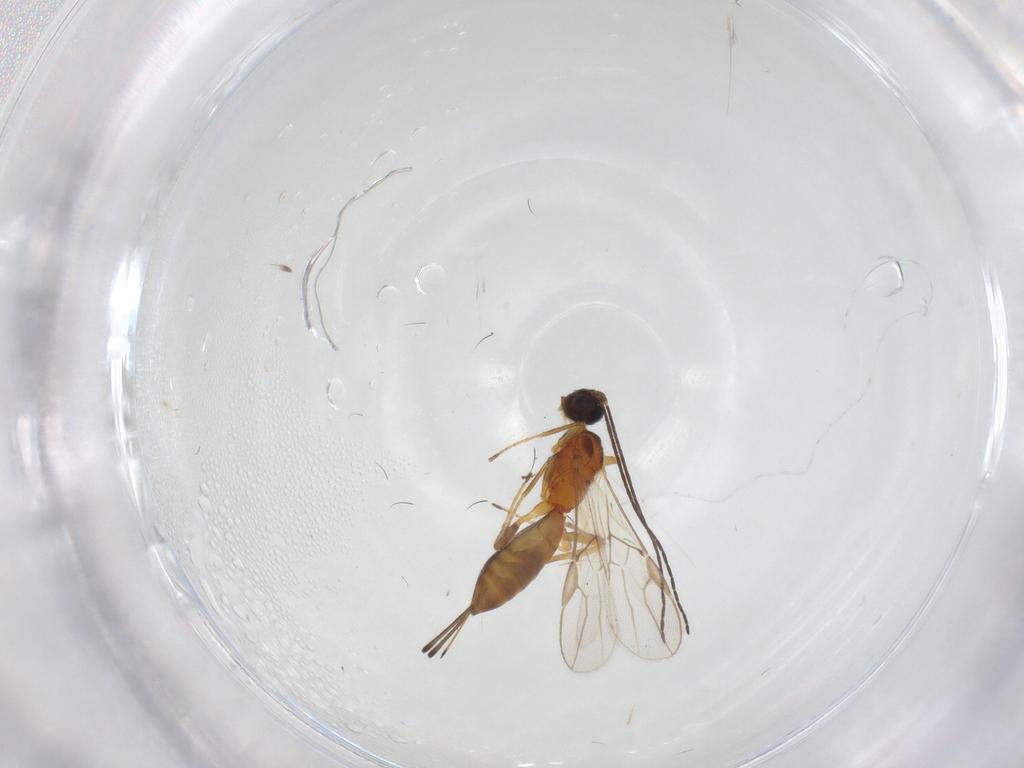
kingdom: Animalia
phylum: Arthropoda
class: Insecta
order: Hymenoptera
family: Braconidae
